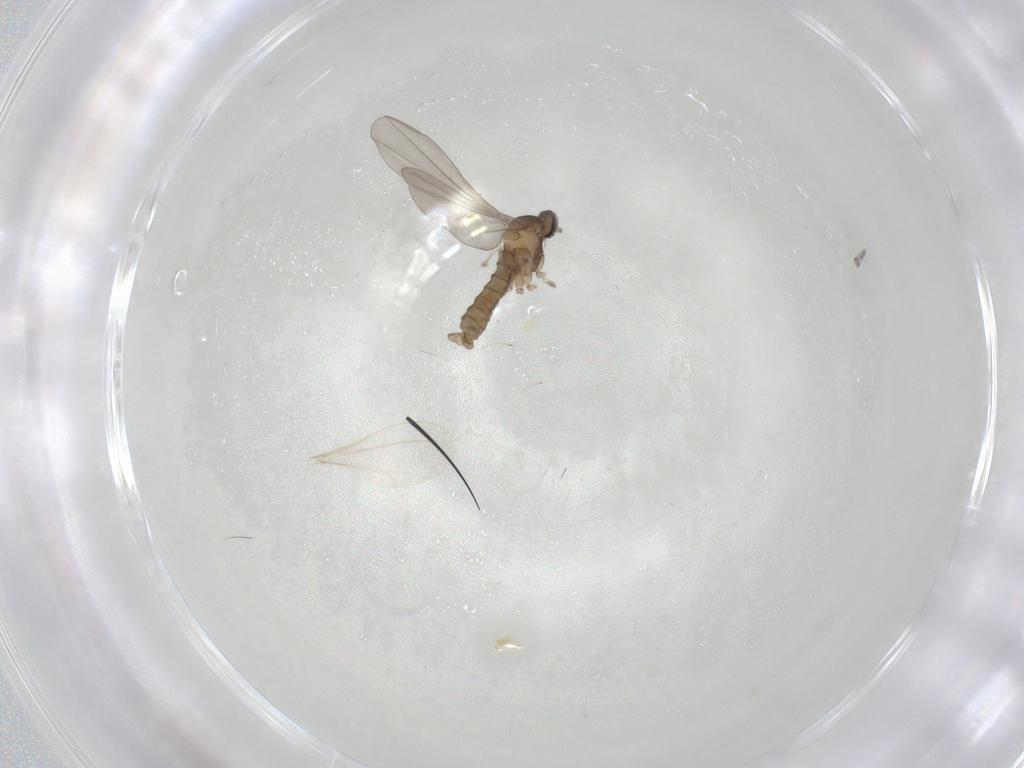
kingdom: Animalia
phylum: Arthropoda
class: Insecta
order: Diptera
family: Cecidomyiidae
